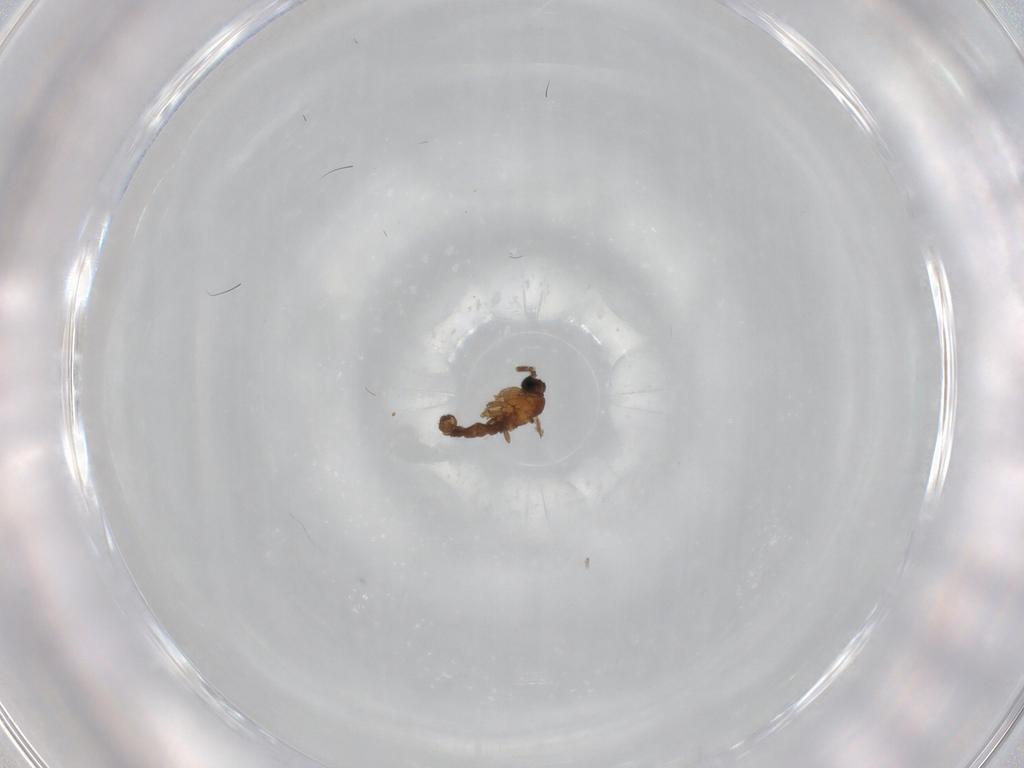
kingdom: Animalia
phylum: Arthropoda
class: Insecta
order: Diptera
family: Sciaridae
